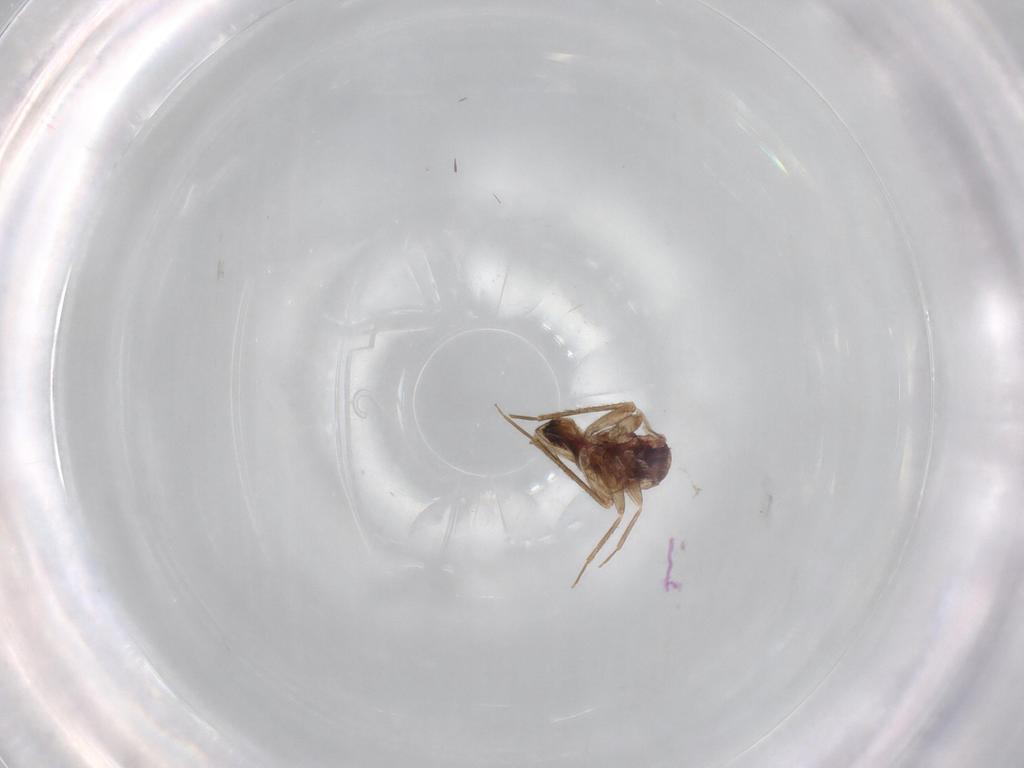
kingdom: Animalia
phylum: Arthropoda
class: Insecta
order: Psocodea
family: Lepidopsocidae
